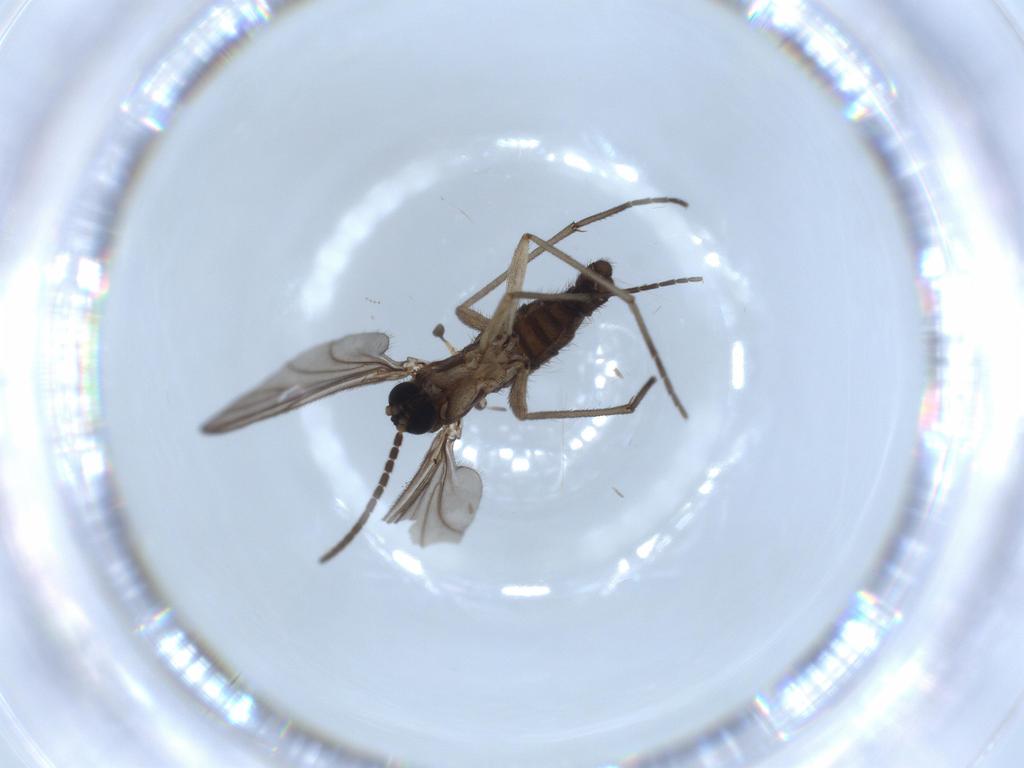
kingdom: Animalia
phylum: Arthropoda
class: Insecta
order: Diptera
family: Sciaridae
